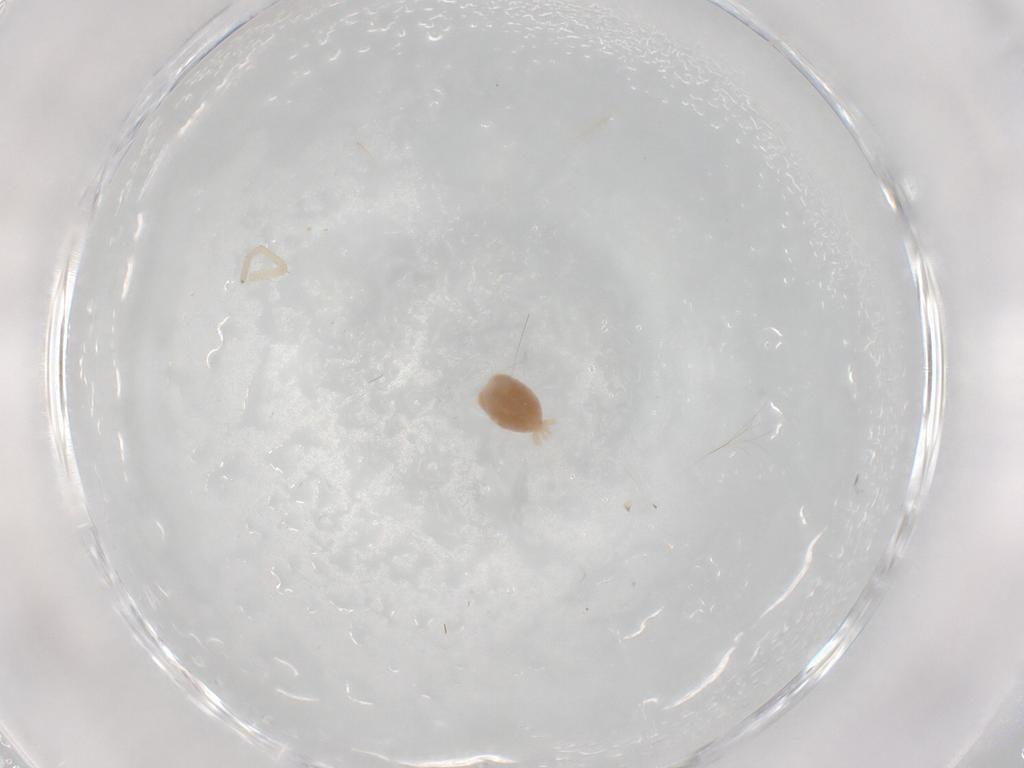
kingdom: Animalia
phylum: Arthropoda
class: Arachnida
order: Araneae
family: Gnaphosidae
